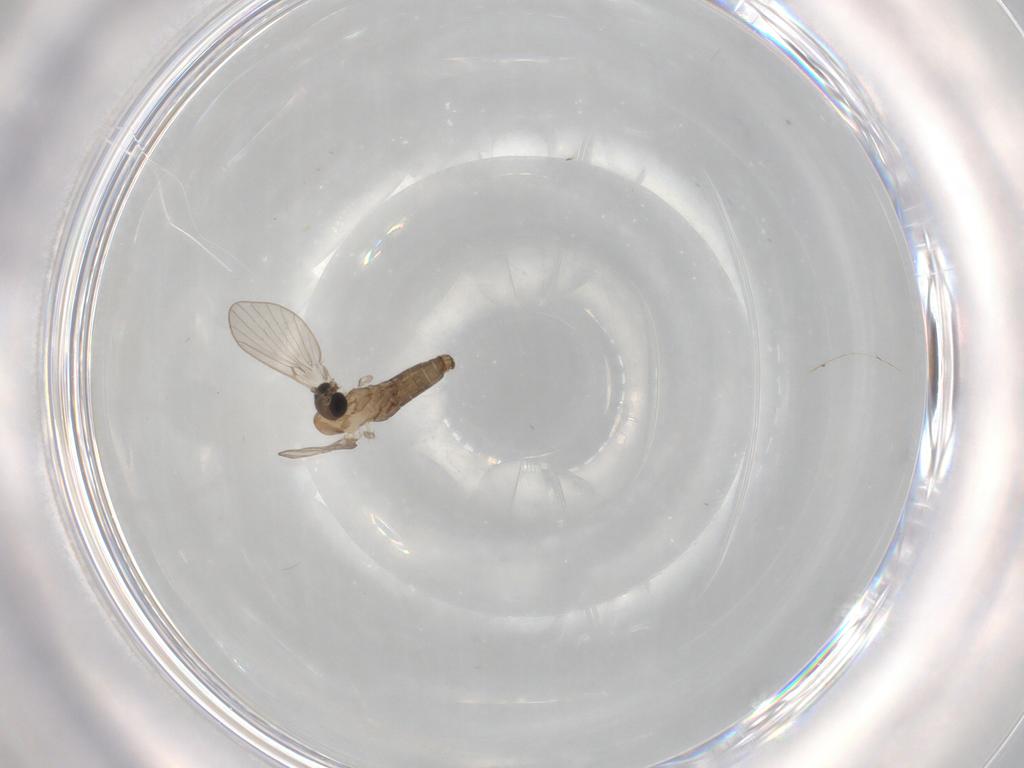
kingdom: Animalia
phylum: Arthropoda
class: Insecta
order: Diptera
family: Psychodidae
